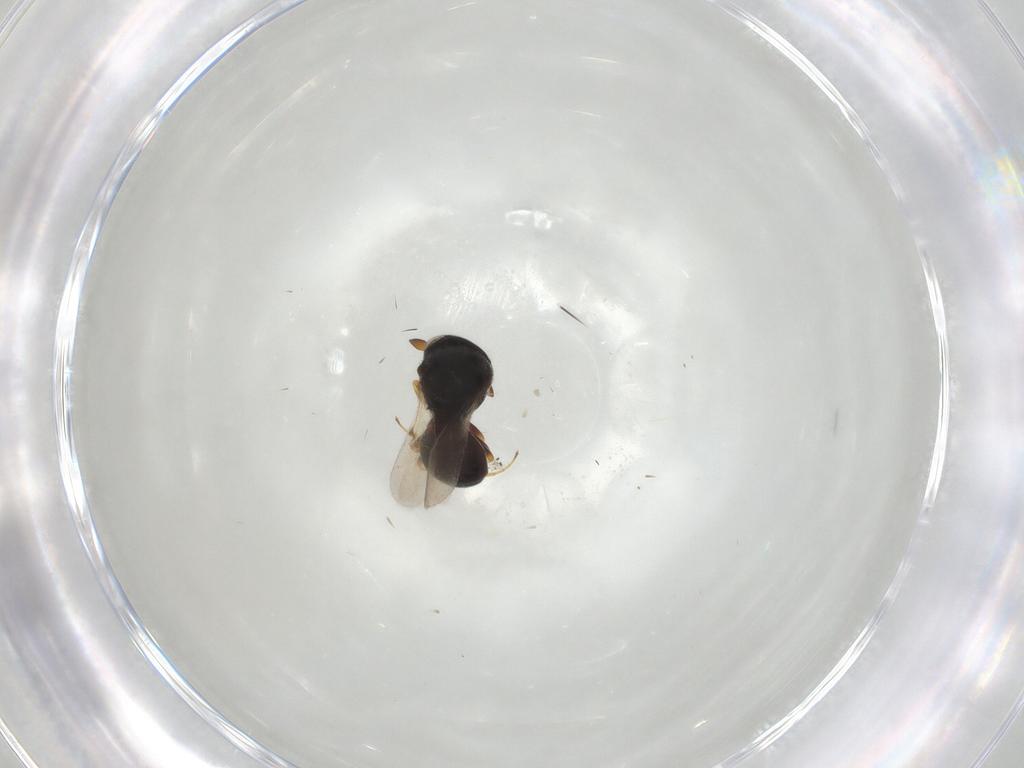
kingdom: Animalia
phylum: Arthropoda
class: Insecta
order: Hymenoptera
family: Scelionidae
